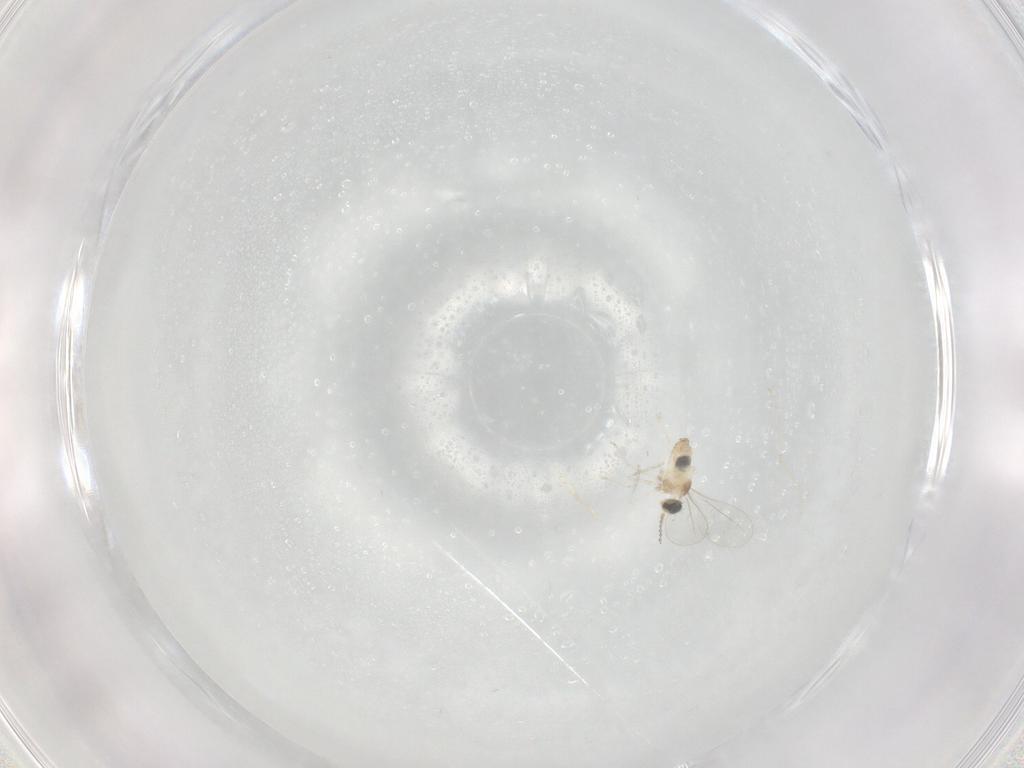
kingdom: Animalia
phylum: Arthropoda
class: Insecta
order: Diptera
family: Cecidomyiidae
